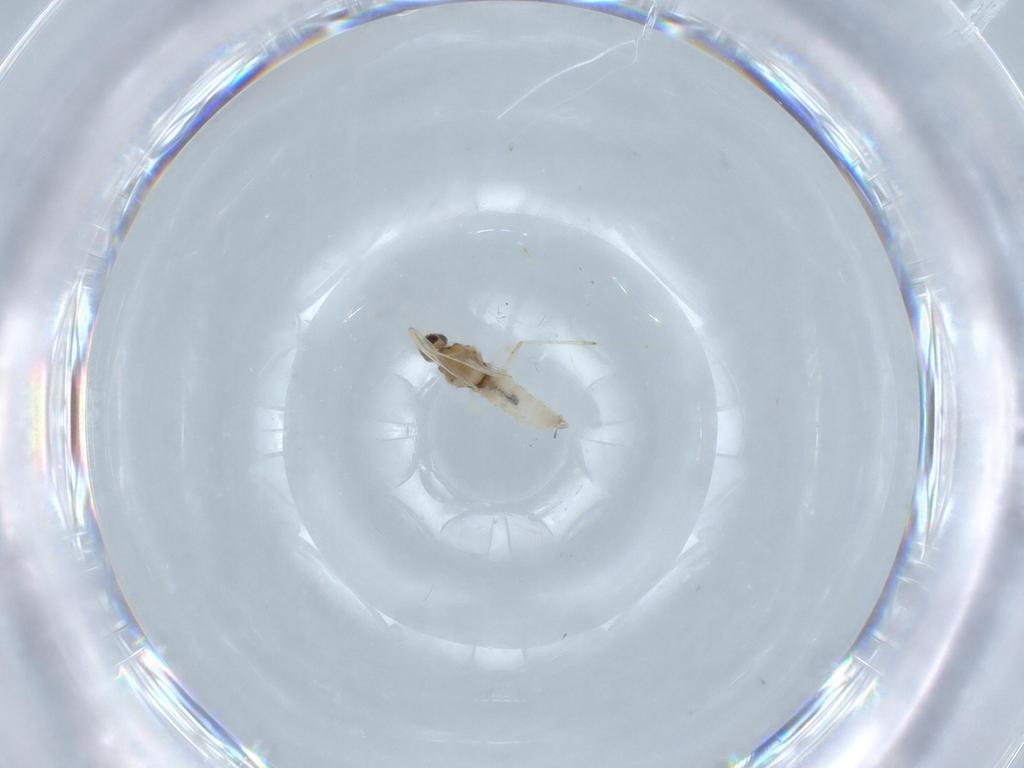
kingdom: Animalia
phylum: Arthropoda
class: Insecta
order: Diptera
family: Cecidomyiidae
